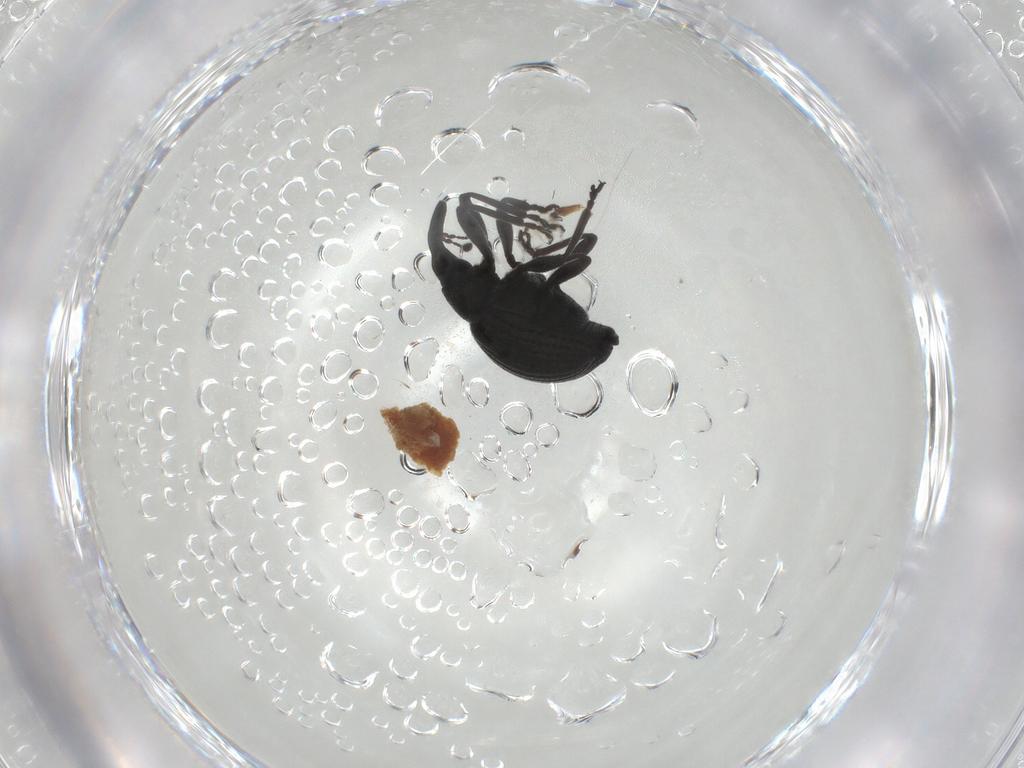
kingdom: Animalia
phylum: Arthropoda
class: Insecta
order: Coleoptera
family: Brentidae
